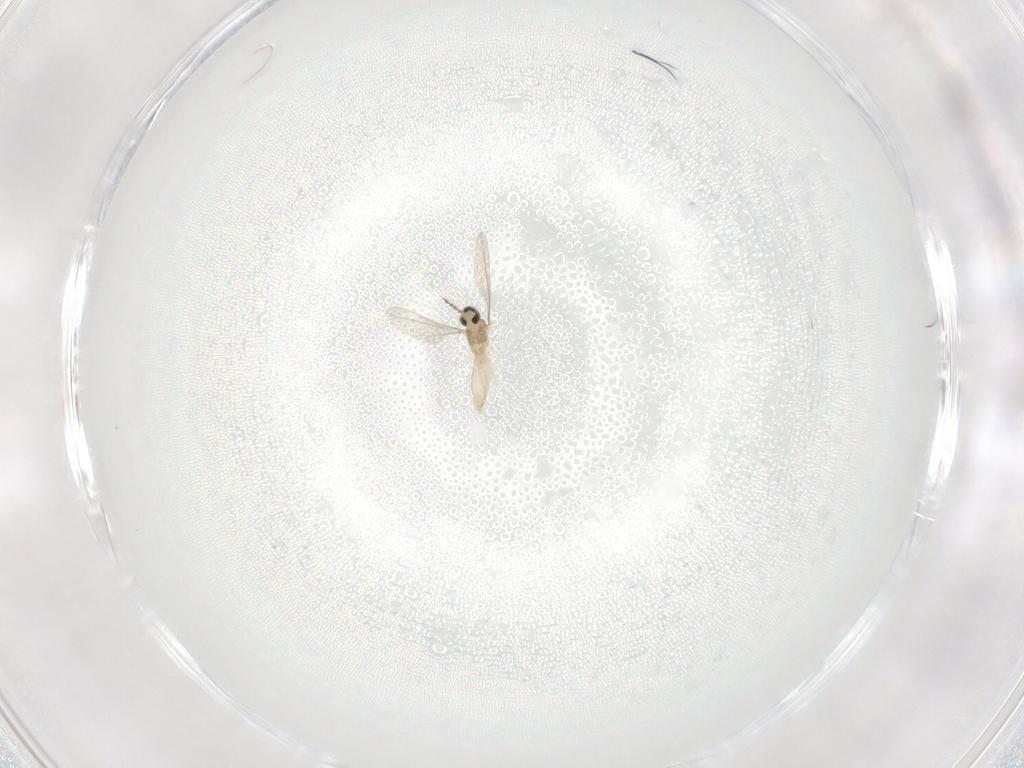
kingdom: Animalia
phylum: Arthropoda
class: Insecta
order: Diptera
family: Cecidomyiidae
